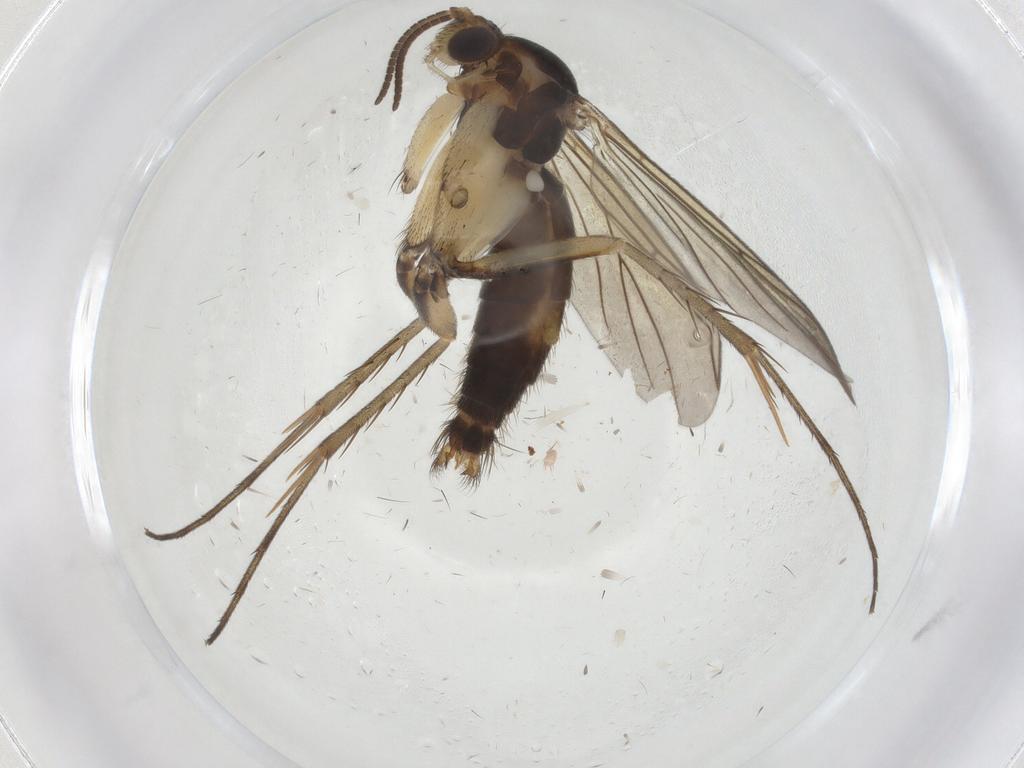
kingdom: Animalia
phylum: Arthropoda
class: Insecta
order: Diptera
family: Mycetophilidae
